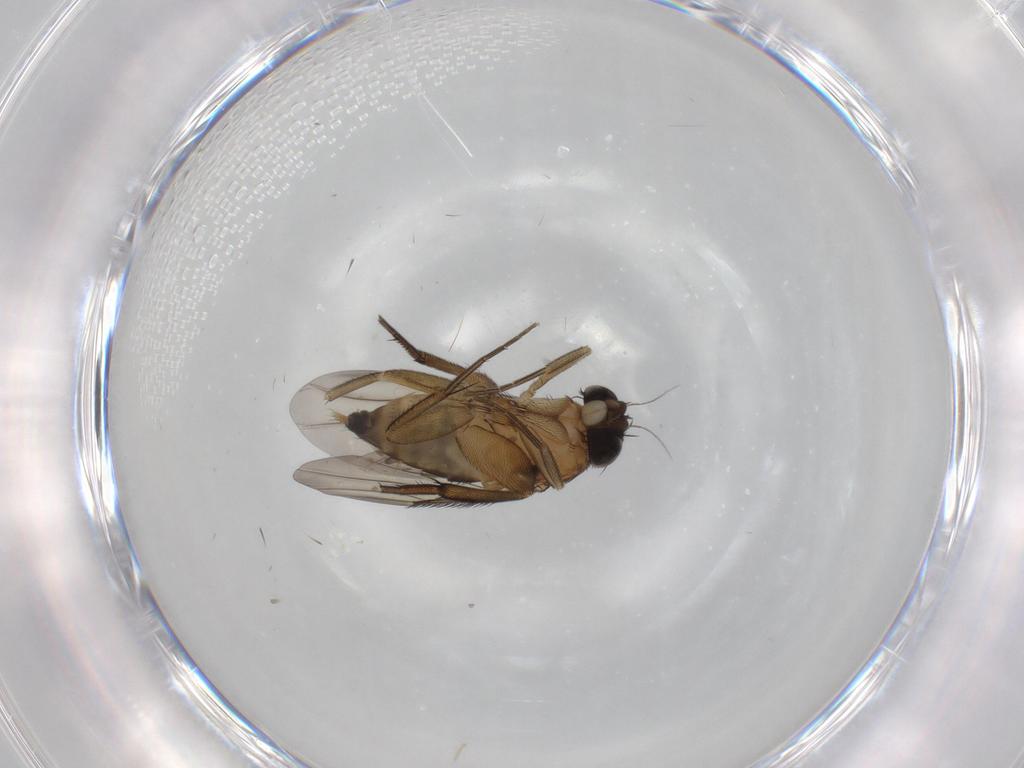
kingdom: Animalia
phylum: Arthropoda
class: Insecta
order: Diptera
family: Phoridae
